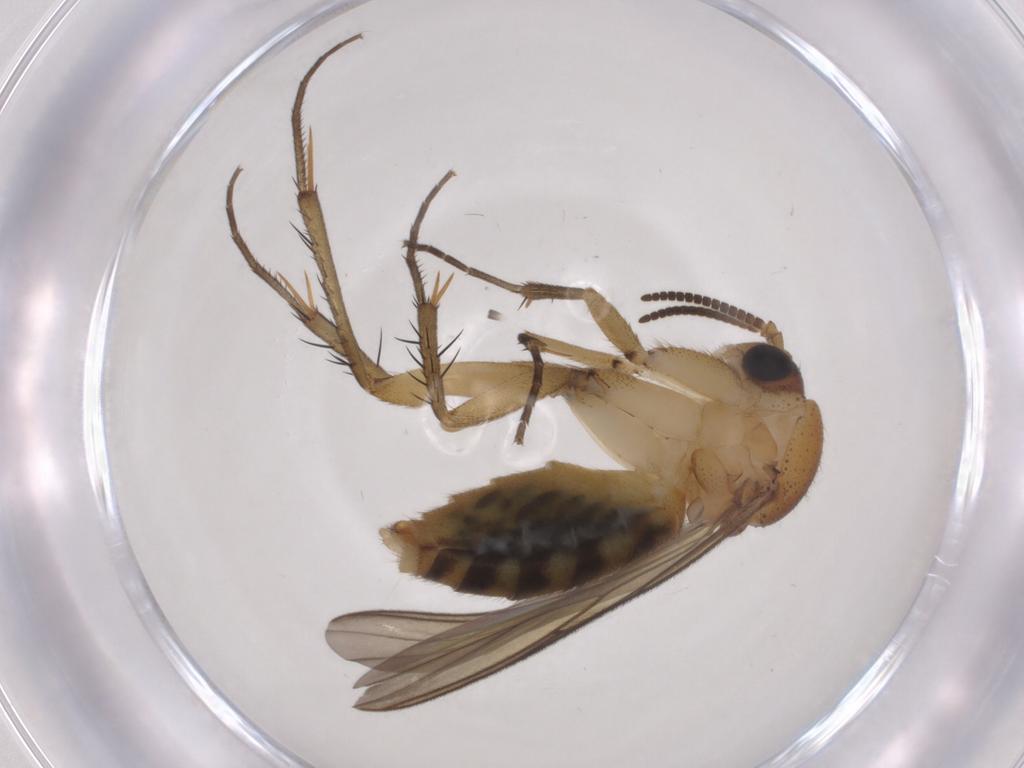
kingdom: Animalia
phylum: Arthropoda
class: Insecta
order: Diptera
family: Mycetophilidae
